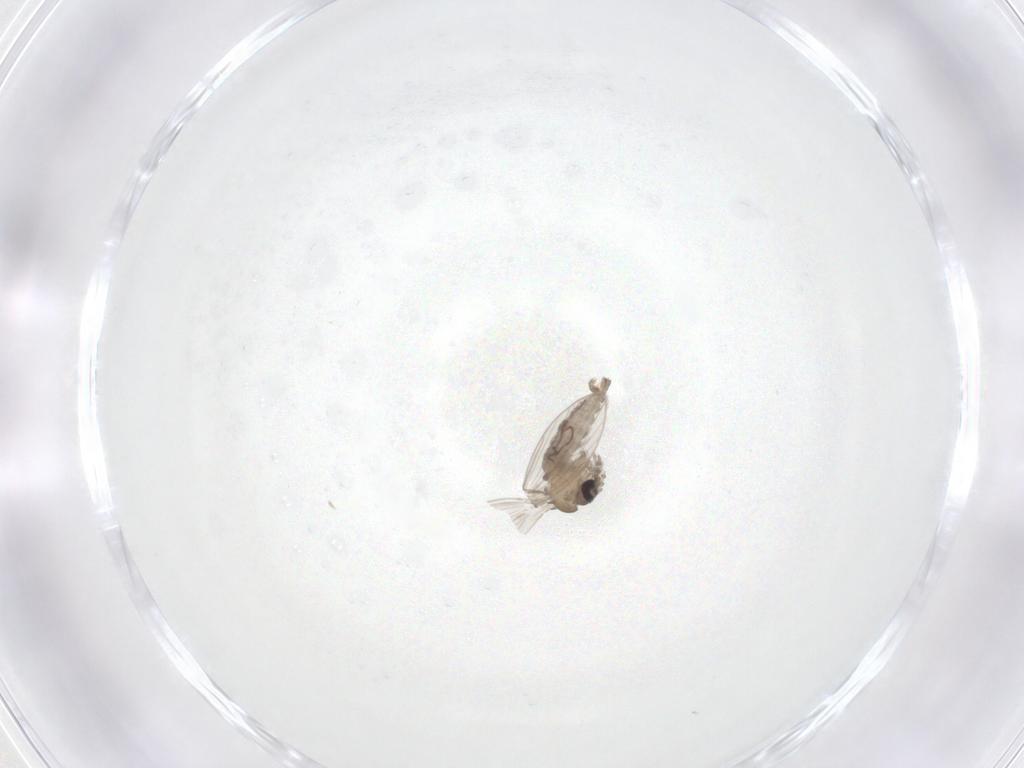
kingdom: Animalia
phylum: Arthropoda
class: Insecta
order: Diptera
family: Psychodidae
